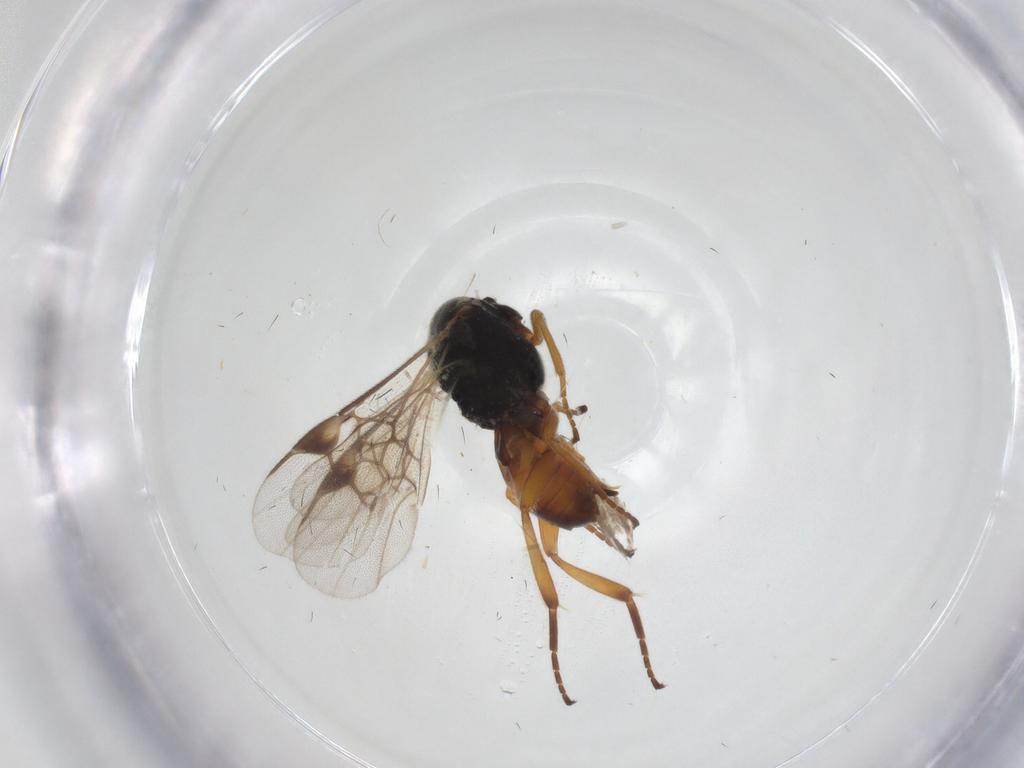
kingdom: Animalia
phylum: Arthropoda
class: Insecta
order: Hymenoptera
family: Braconidae
